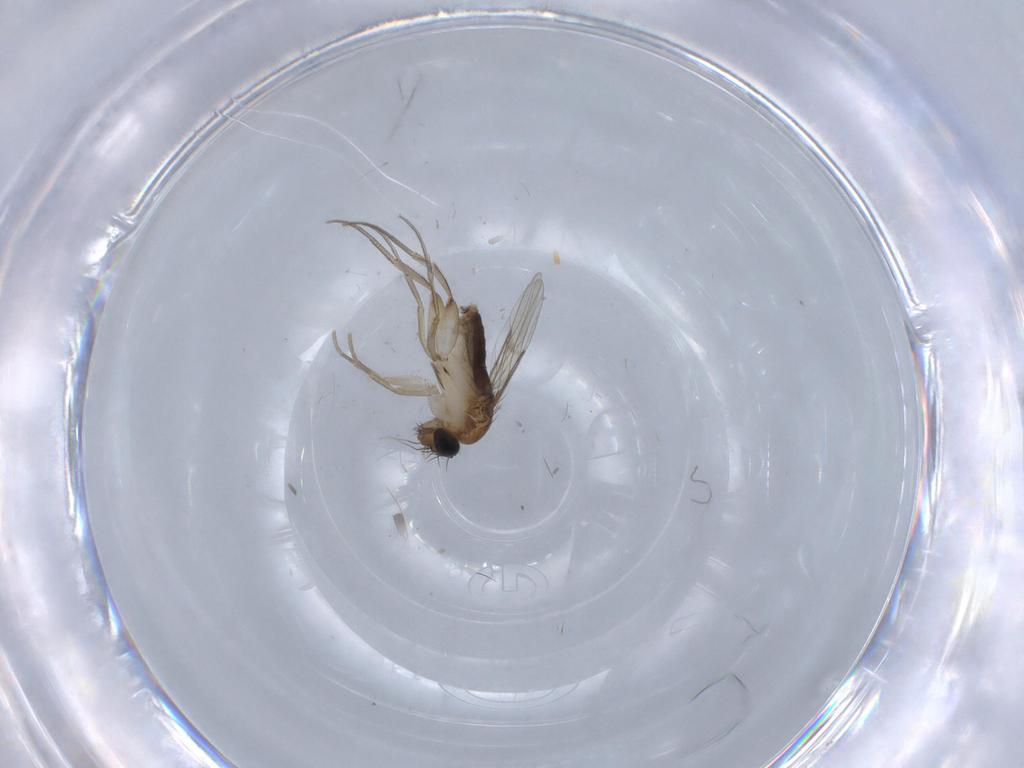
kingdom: Animalia
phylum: Arthropoda
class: Insecta
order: Diptera
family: Phoridae
